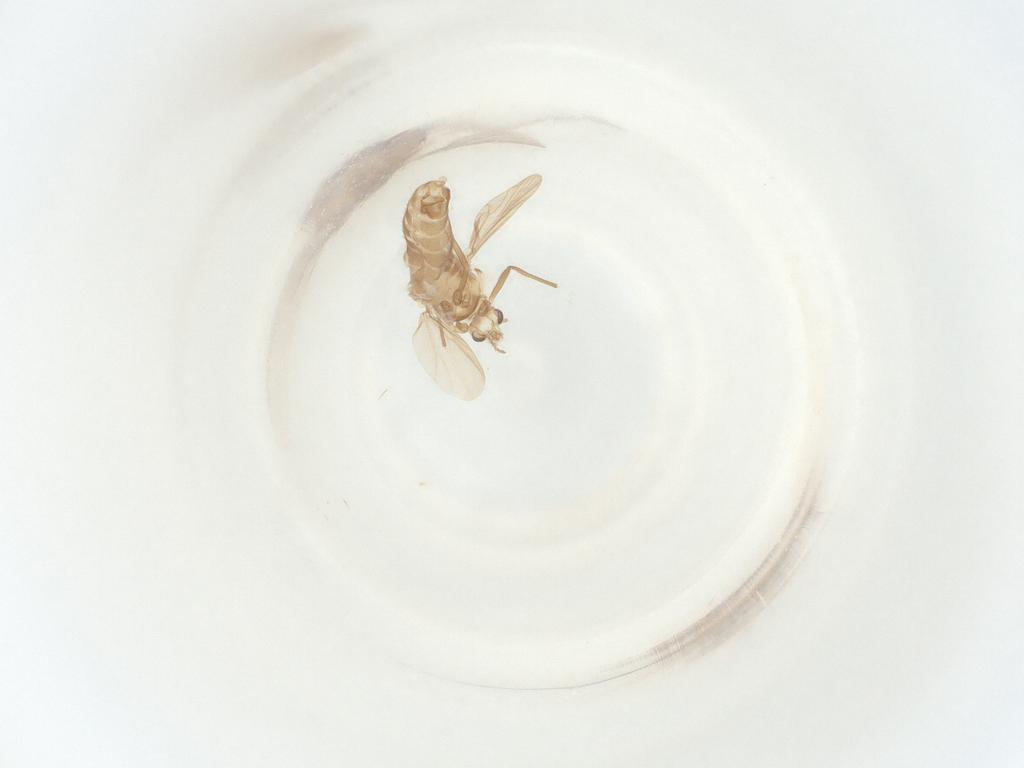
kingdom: Animalia
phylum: Arthropoda
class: Insecta
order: Diptera
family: Chironomidae
